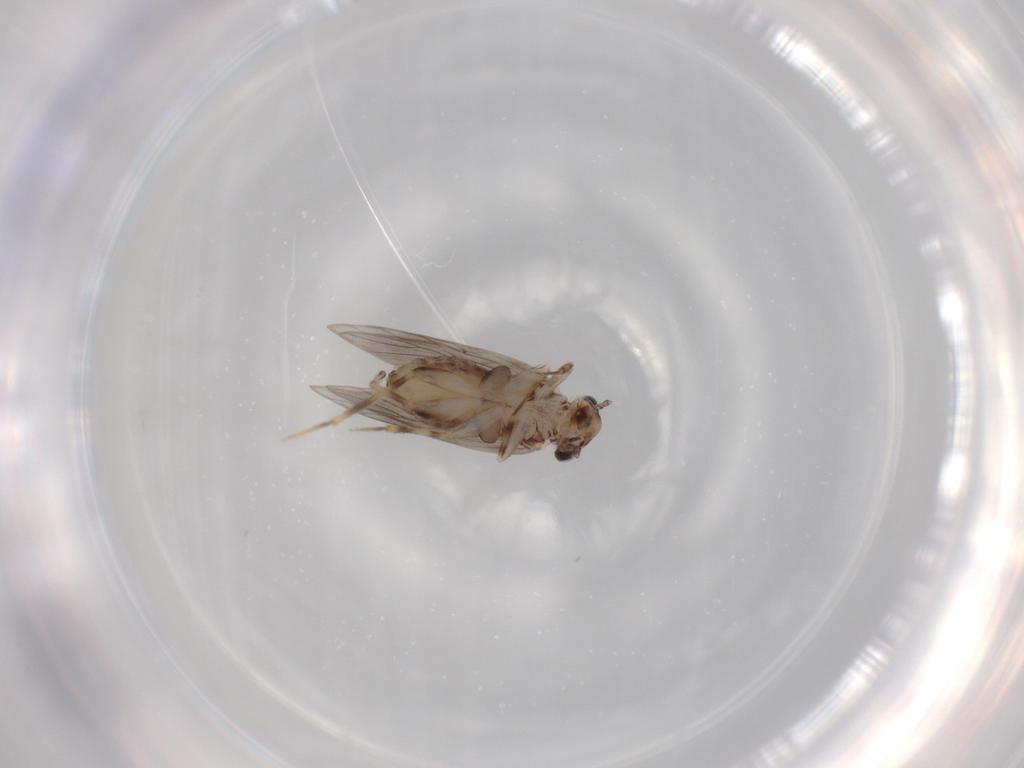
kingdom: Animalia
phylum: Arthropoda
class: Insecta
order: Psocodea
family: Lepidopsocidae
